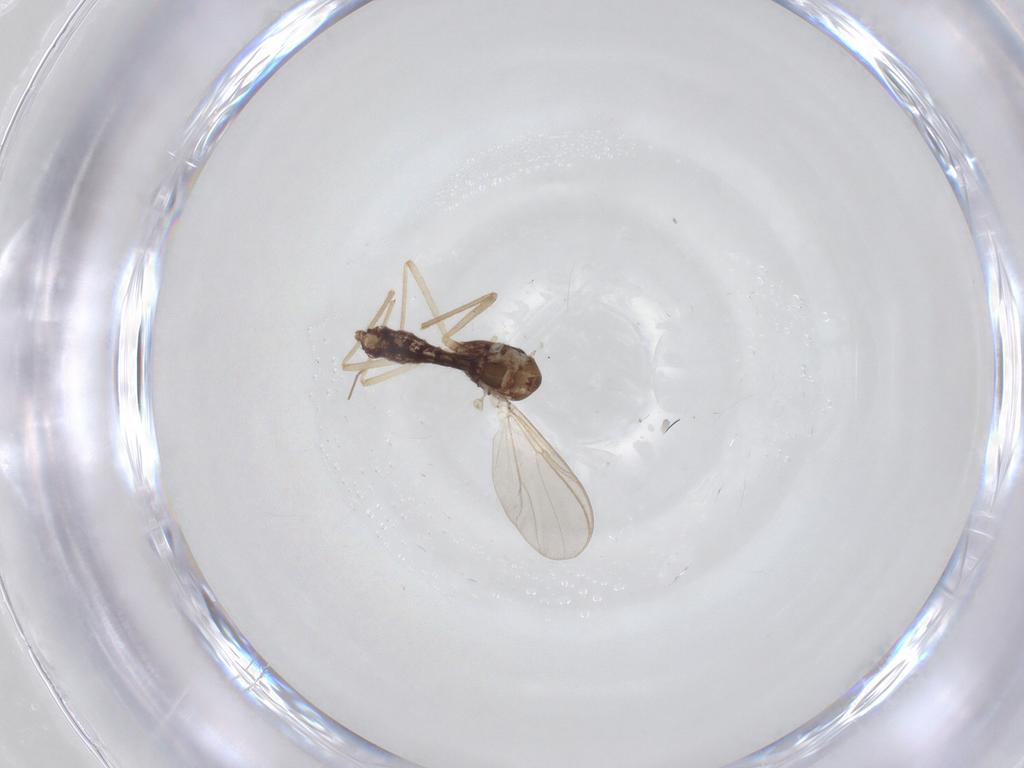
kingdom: Animalia
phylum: Arthropoda
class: Insecta
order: Diptera
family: Chironomidae
